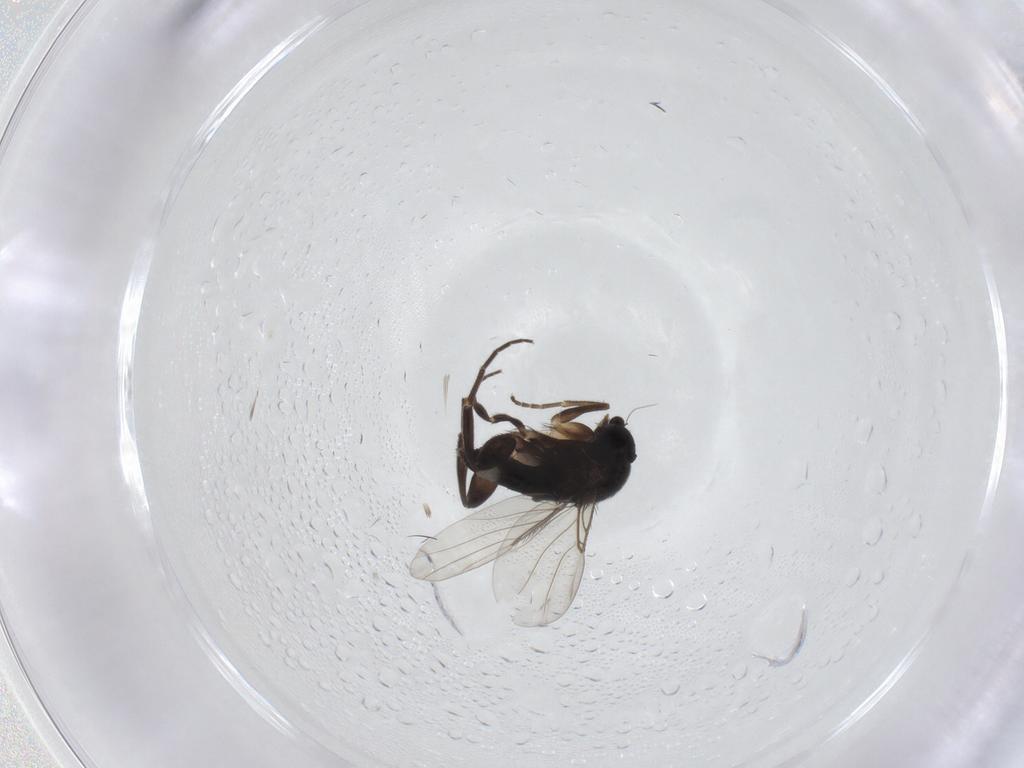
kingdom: Animalia
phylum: Arthropoda
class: Insecta
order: Diptera
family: Phoridae
